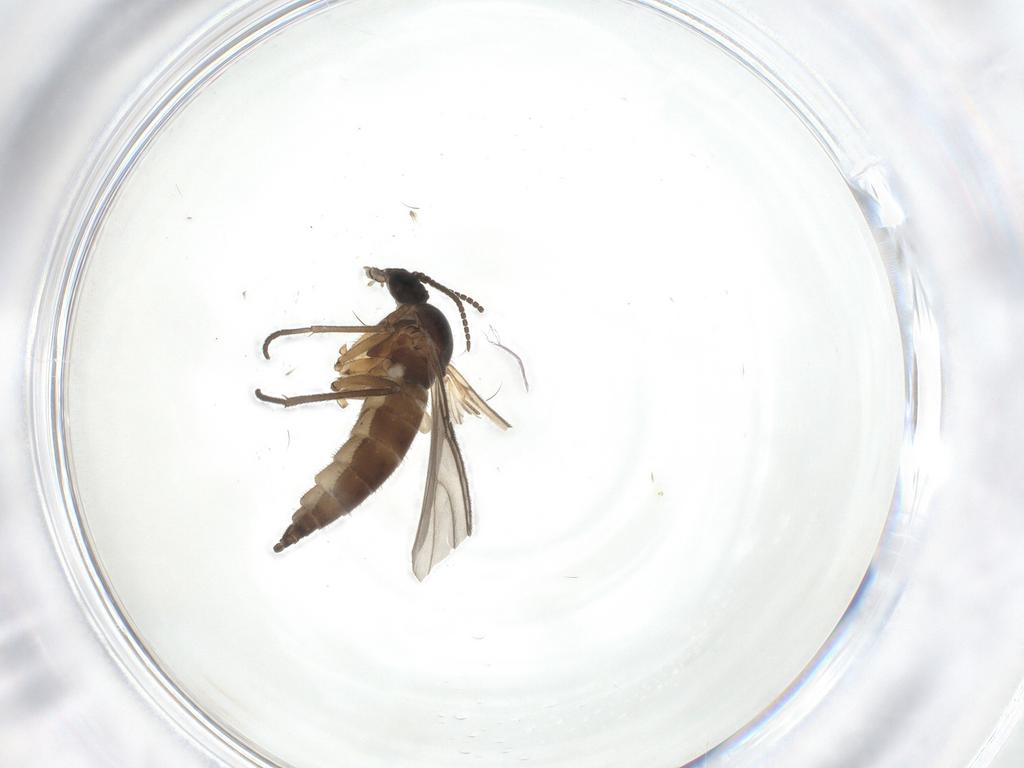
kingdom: Animalia
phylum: Arthropoda
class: Insecta
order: Diptera
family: Sciaridae
